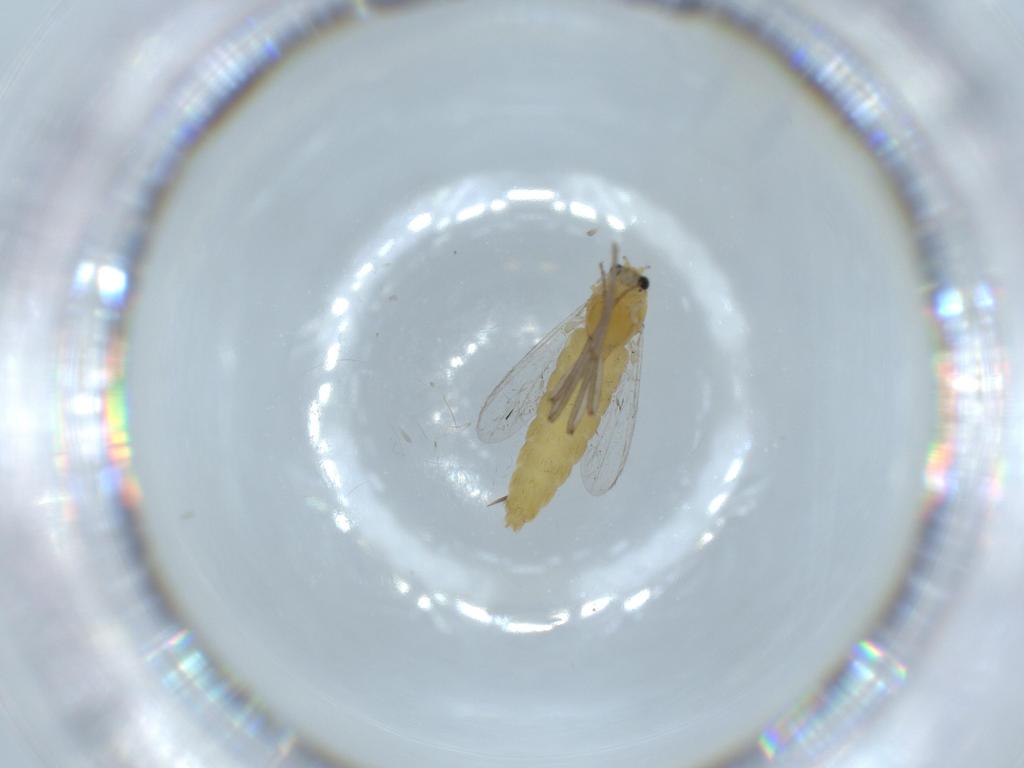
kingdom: Animalia
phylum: Arthropoda
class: Insecta
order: Diptera
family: Chironomidae
